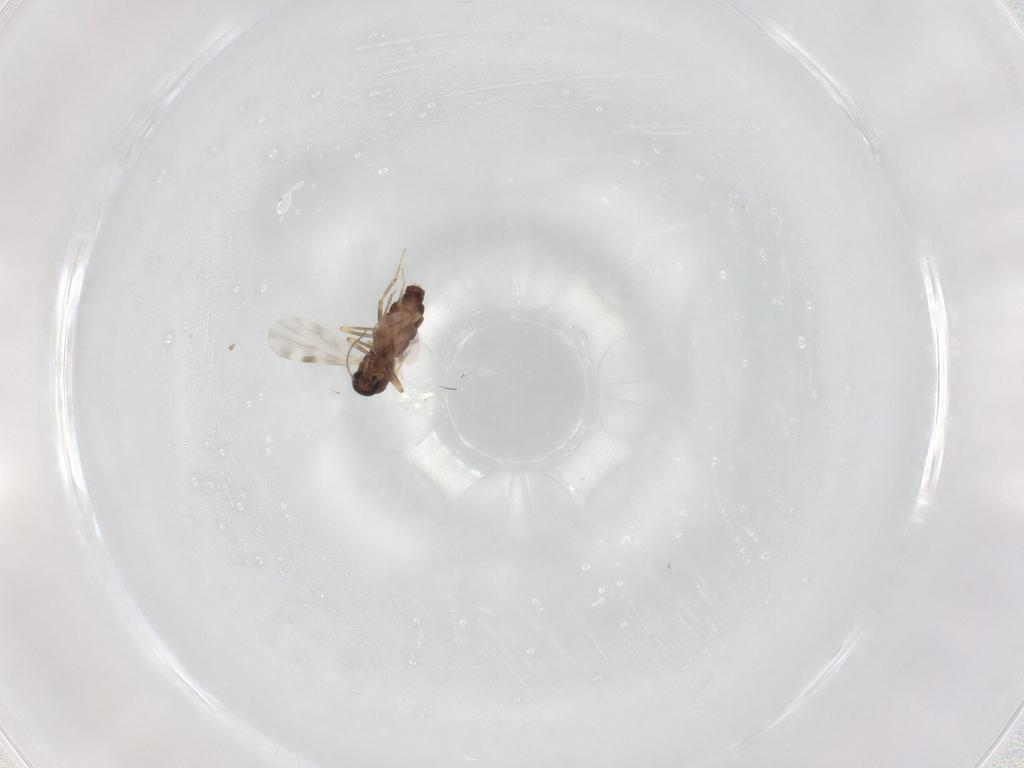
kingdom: Animalia
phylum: Arthropoda
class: Insecta
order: Diptera
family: Ceratopogonidae
